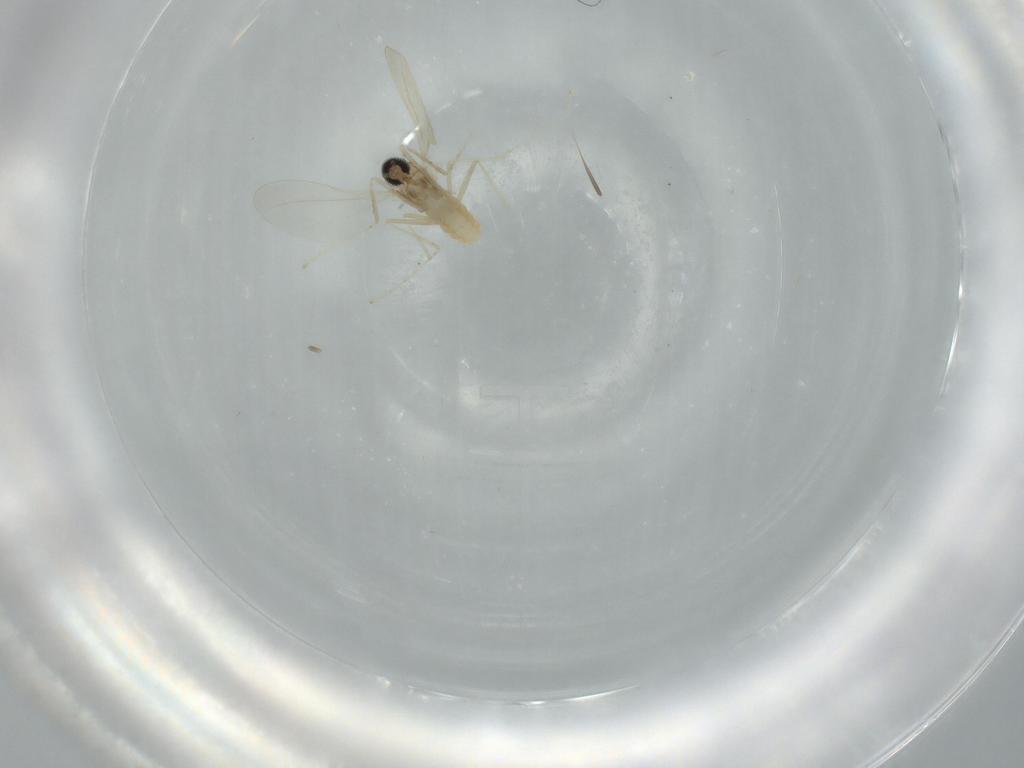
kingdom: Animalia
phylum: Arthropoda
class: Insecta
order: Diptera
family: Cecidomyiidae
